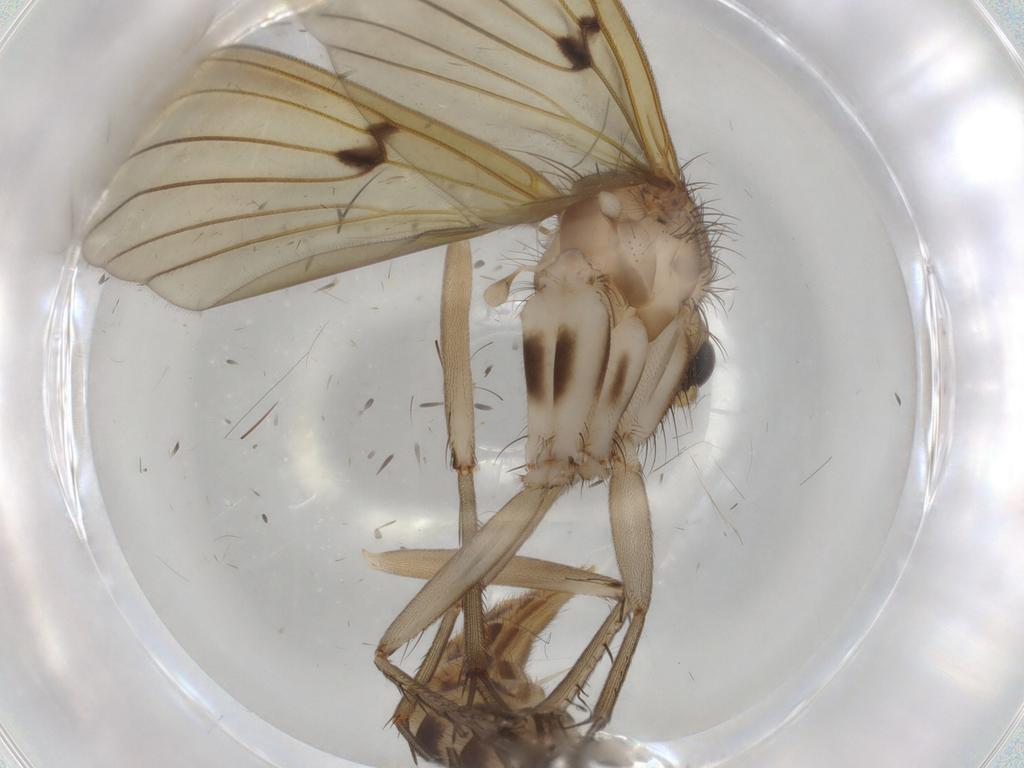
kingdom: Animalia
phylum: Arthropoda
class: Insecta
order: Diptera
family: Mycetophilidae
